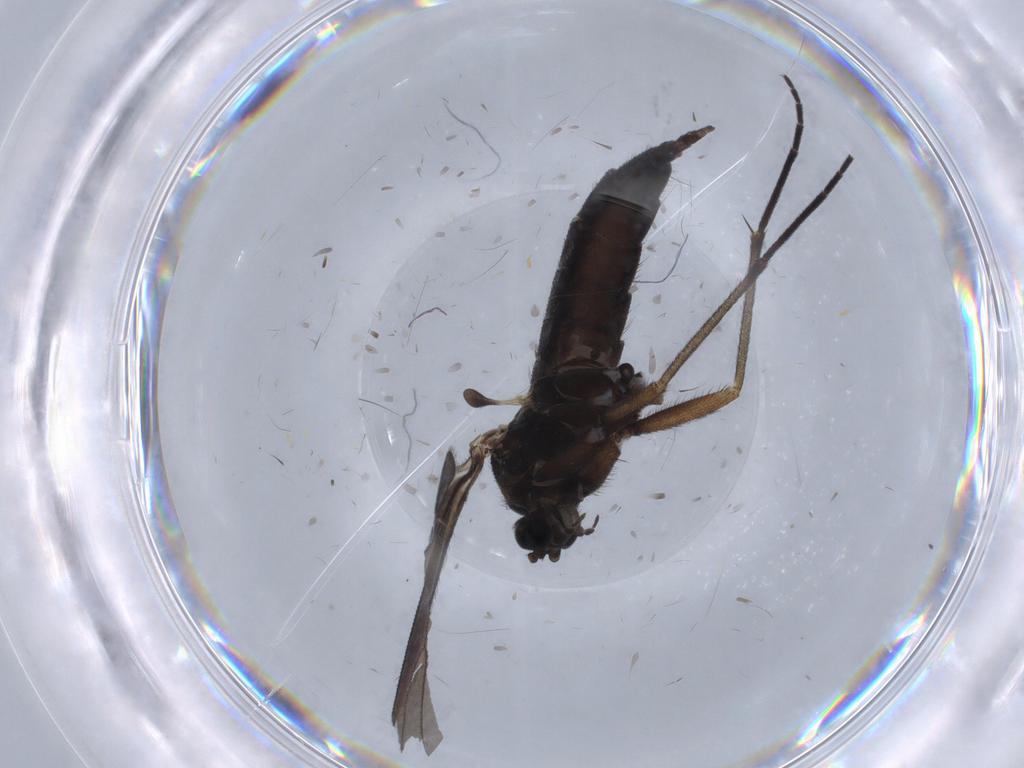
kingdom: Animalia
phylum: Arthropoda
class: Insecta
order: Diptera
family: Sciaridae
